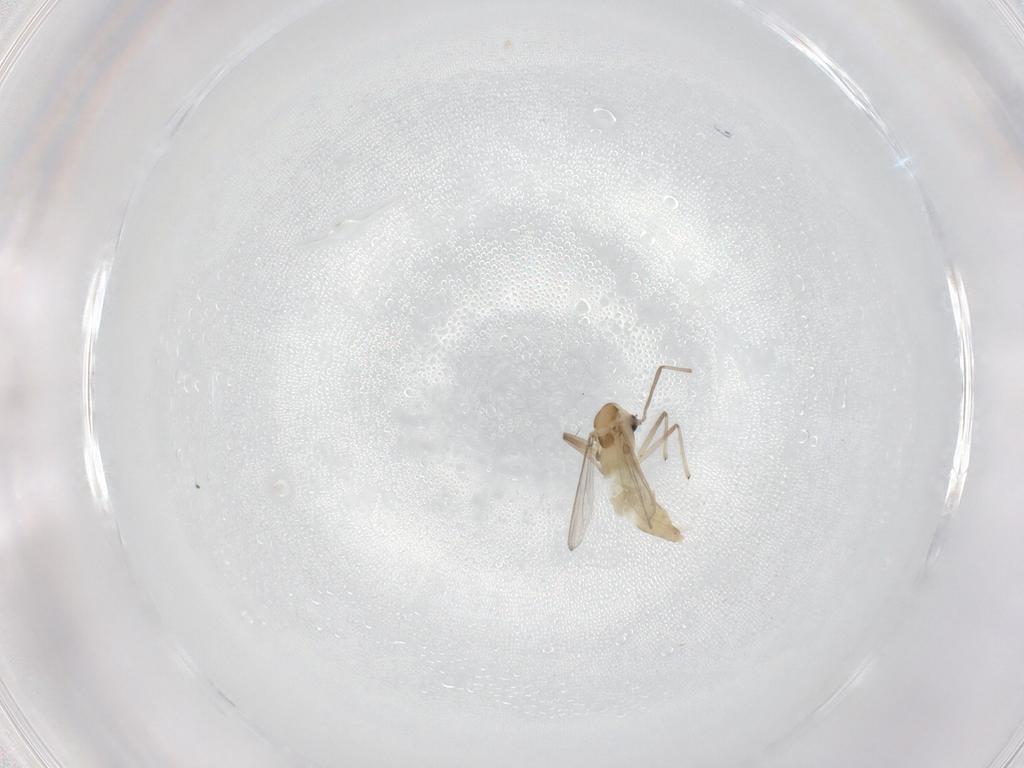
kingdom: Animalia
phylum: Arthropoda
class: Insecta
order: Diptera
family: Chironomidae
